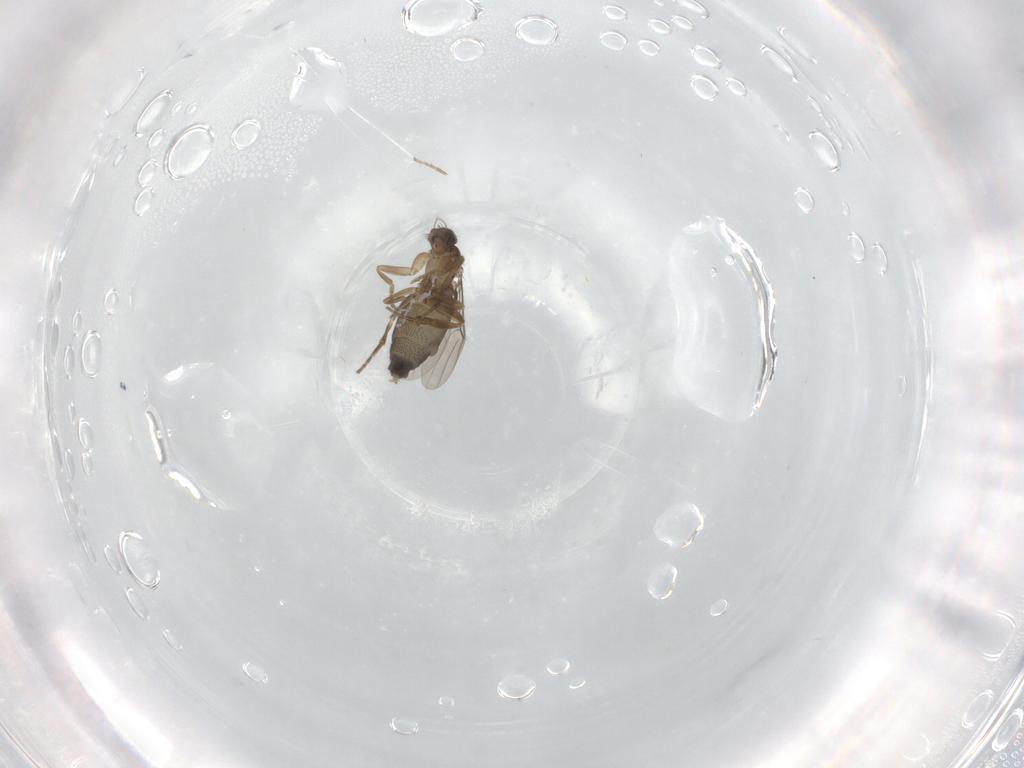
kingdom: Animalia
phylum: Arthropoda
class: Insecta
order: Diptera
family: Phoridae
